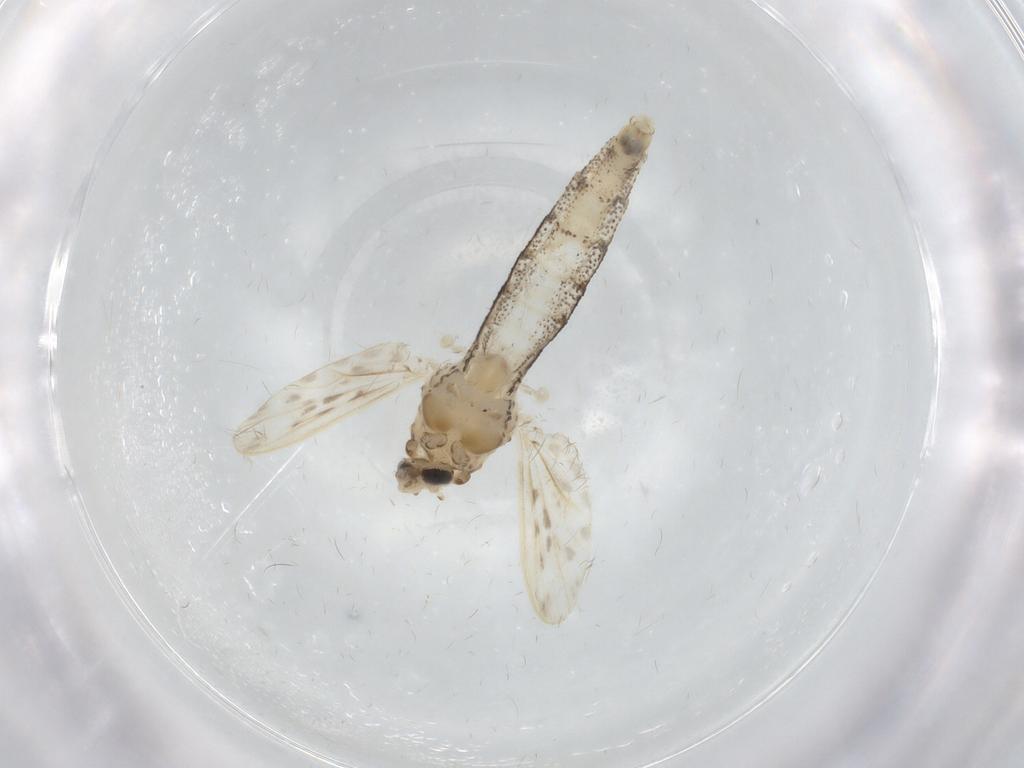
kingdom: Animalia
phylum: Arthropoda
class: Insecta
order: Diptera
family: Chaoboridae
